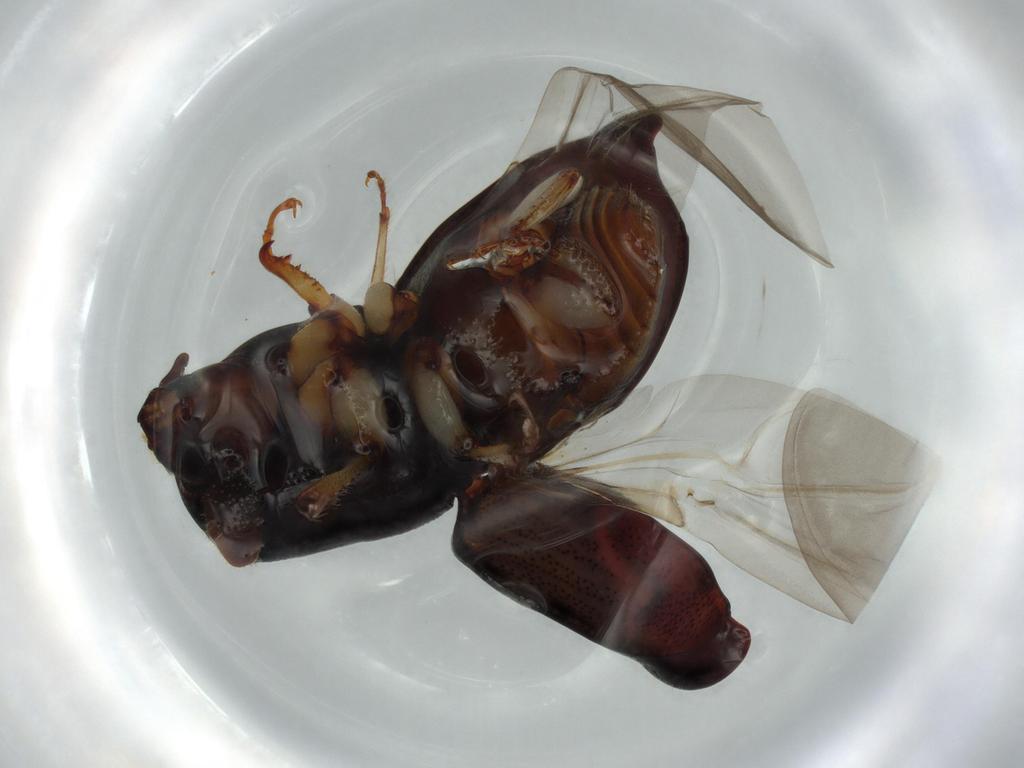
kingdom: Animalia
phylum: Arthropoda
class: Insecta
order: Coleoptera
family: Curculionidae
